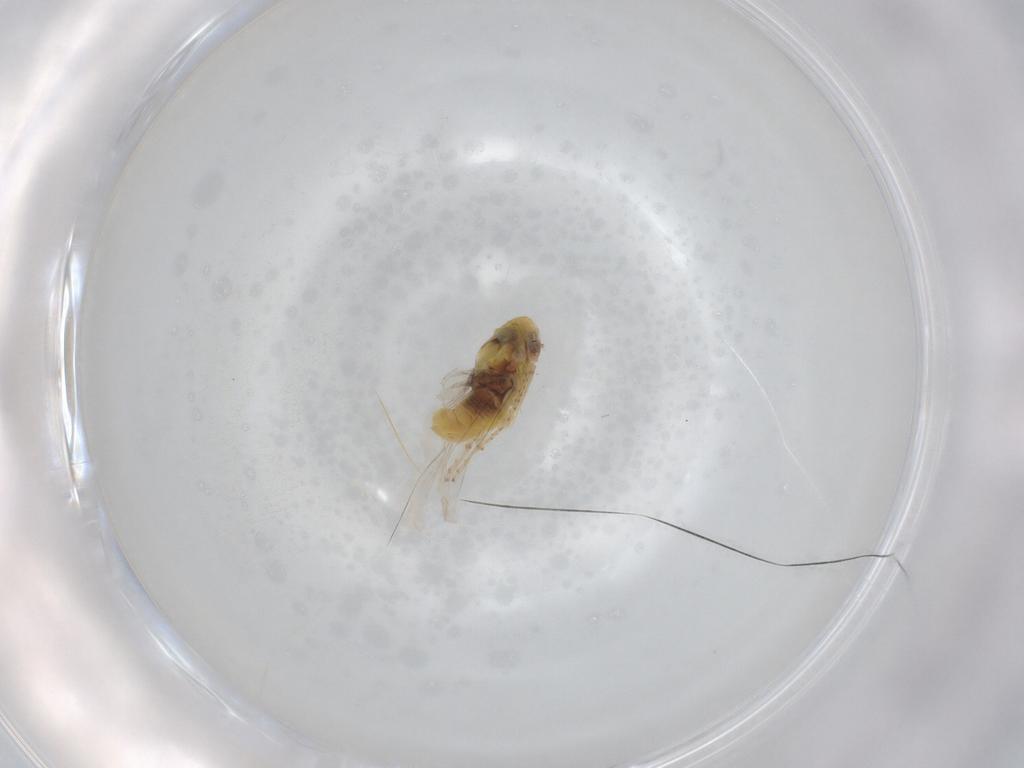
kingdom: Animalia
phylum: Arthropoda
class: Insecta
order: Hemiptera
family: Cicadellidae
